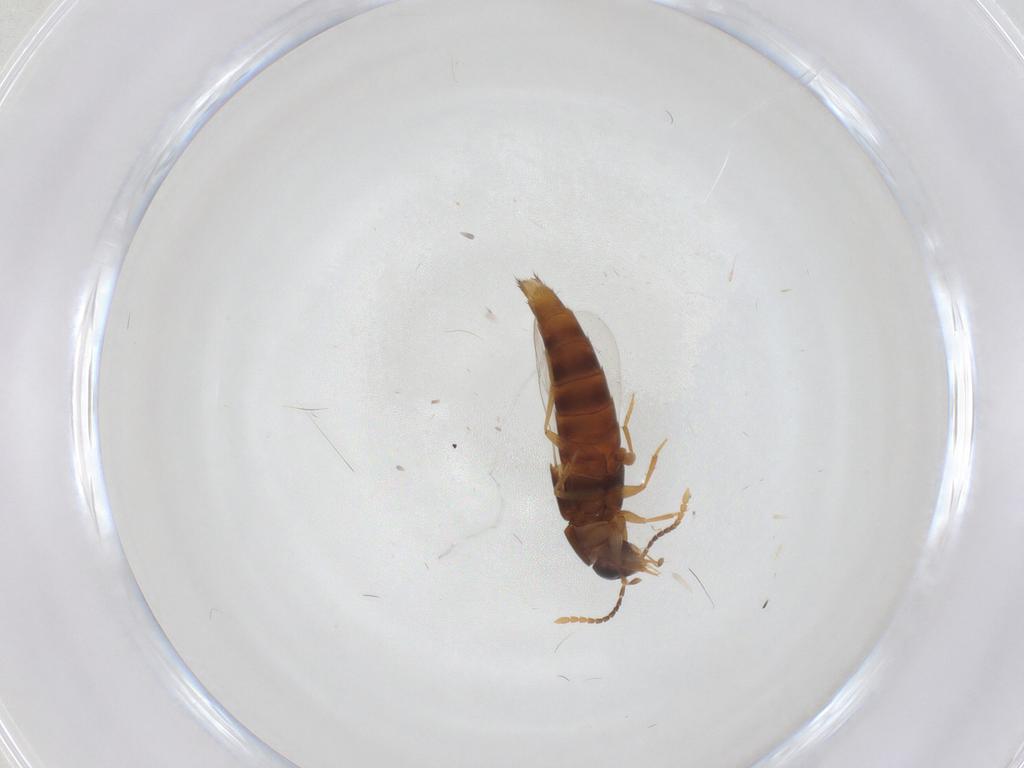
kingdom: Animalia
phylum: Arthropoda
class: Insecta
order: Coleoptera
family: Staphylinidae
